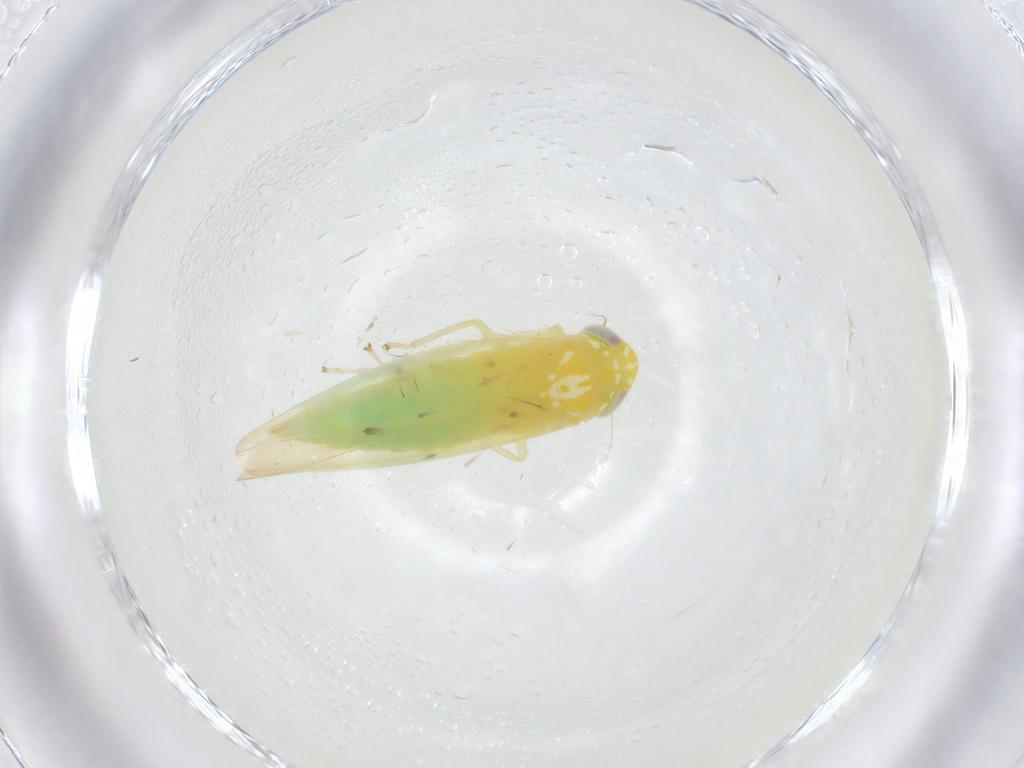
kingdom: Animalia
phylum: Arthropoda
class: Insecta
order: Hemiptera
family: Cicadellidae
